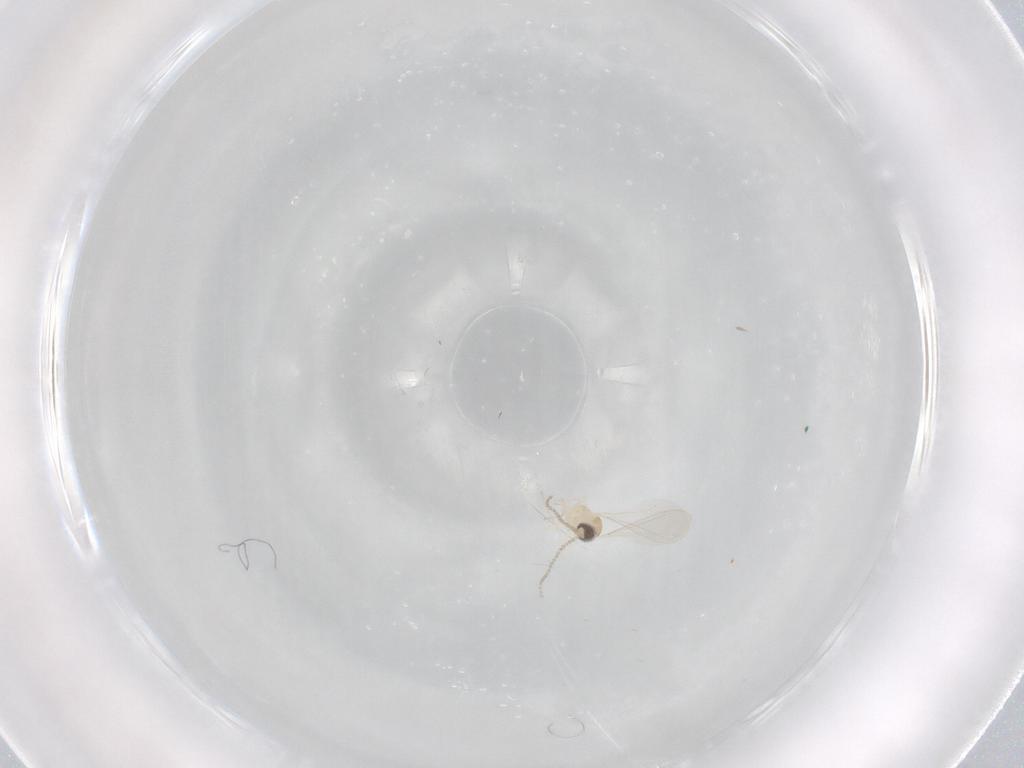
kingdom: Animalia
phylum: Arthropoda
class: Insecta
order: Diptera
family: Cecidomyiidae
